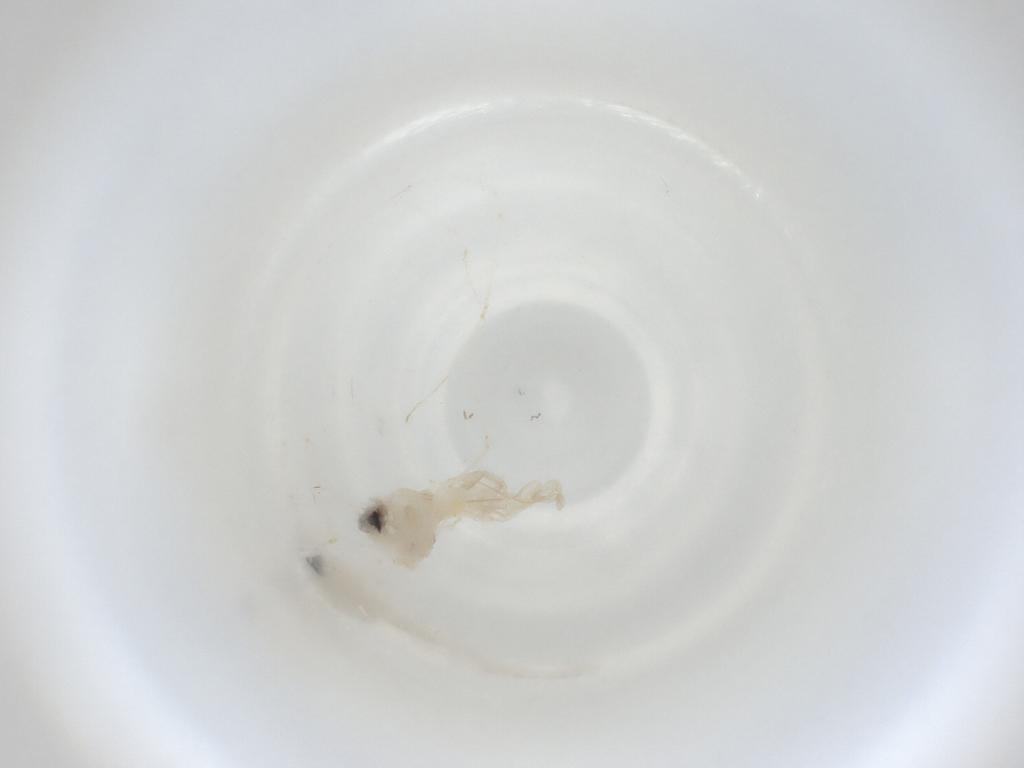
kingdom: Animalia
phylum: Arthropoda
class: Insecta
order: Diptera
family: Cecidomyiidae
